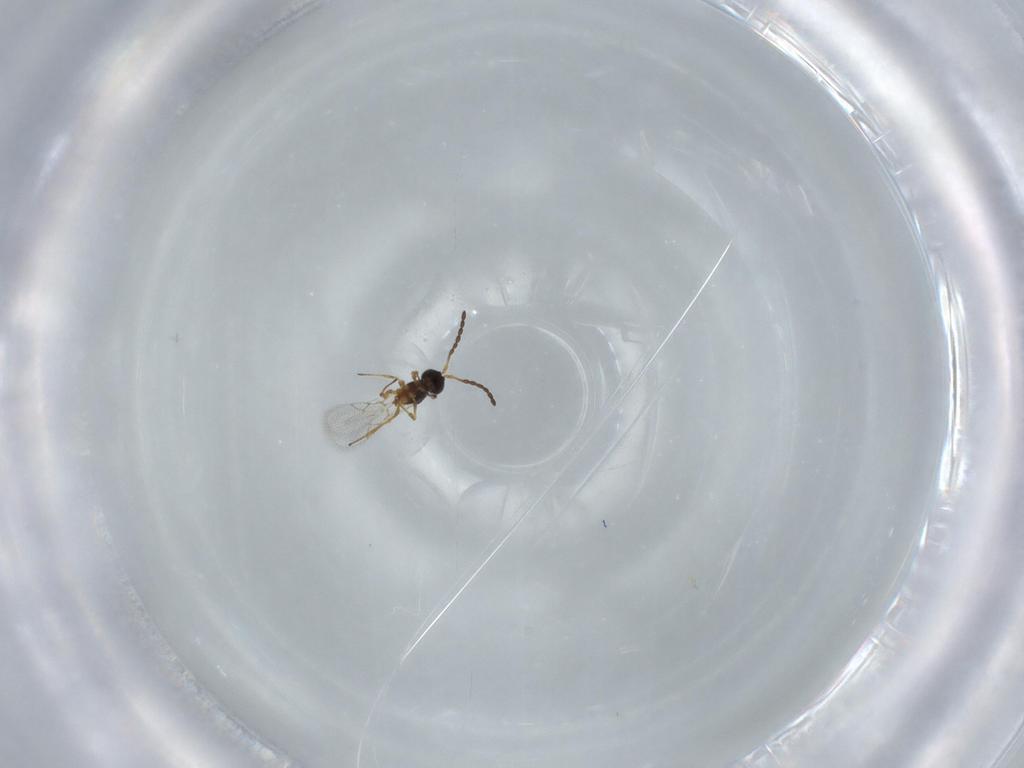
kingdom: Animalia
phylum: Arthropoda
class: Insecta
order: Hymenoptera
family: Figitidae
